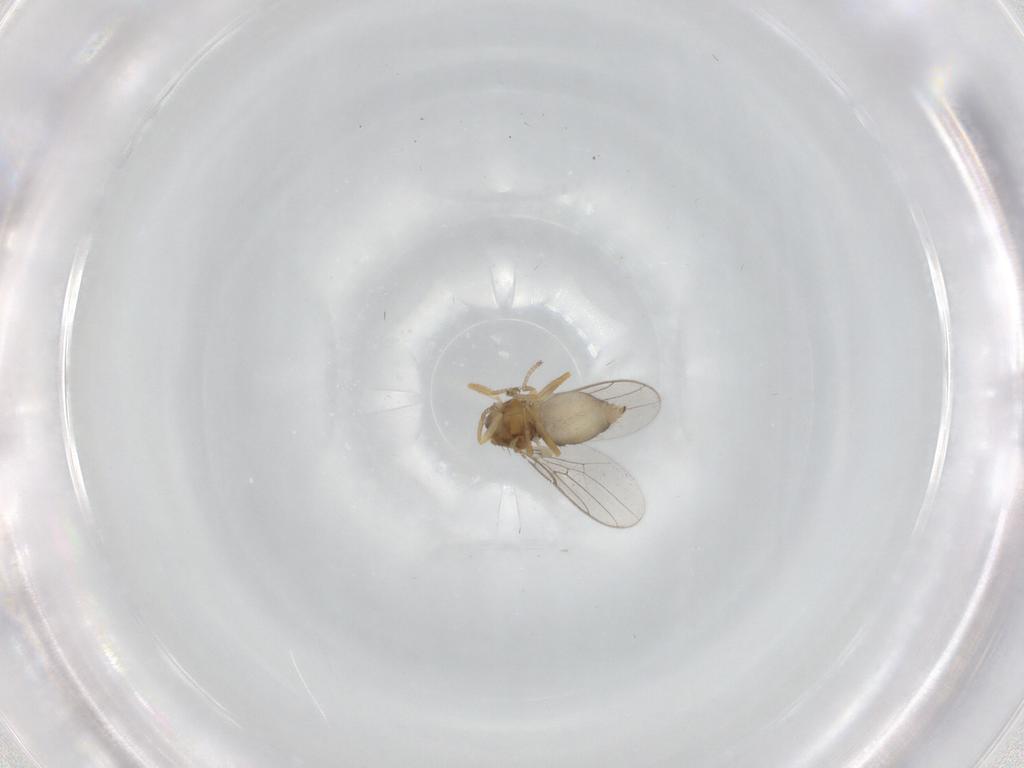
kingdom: Animalia
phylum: Arthropoda
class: Insecta
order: Diptera
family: Chloropidae
